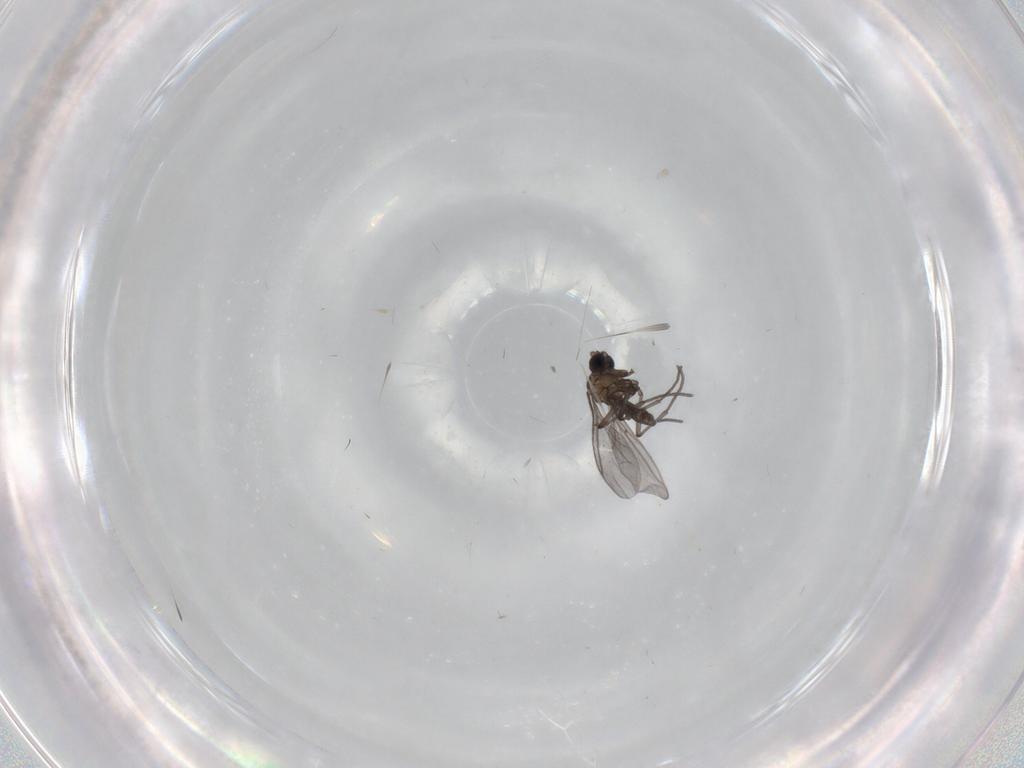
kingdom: Animalia
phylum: Arthropoda
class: Insecta
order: Diptera
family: Sciaridae
